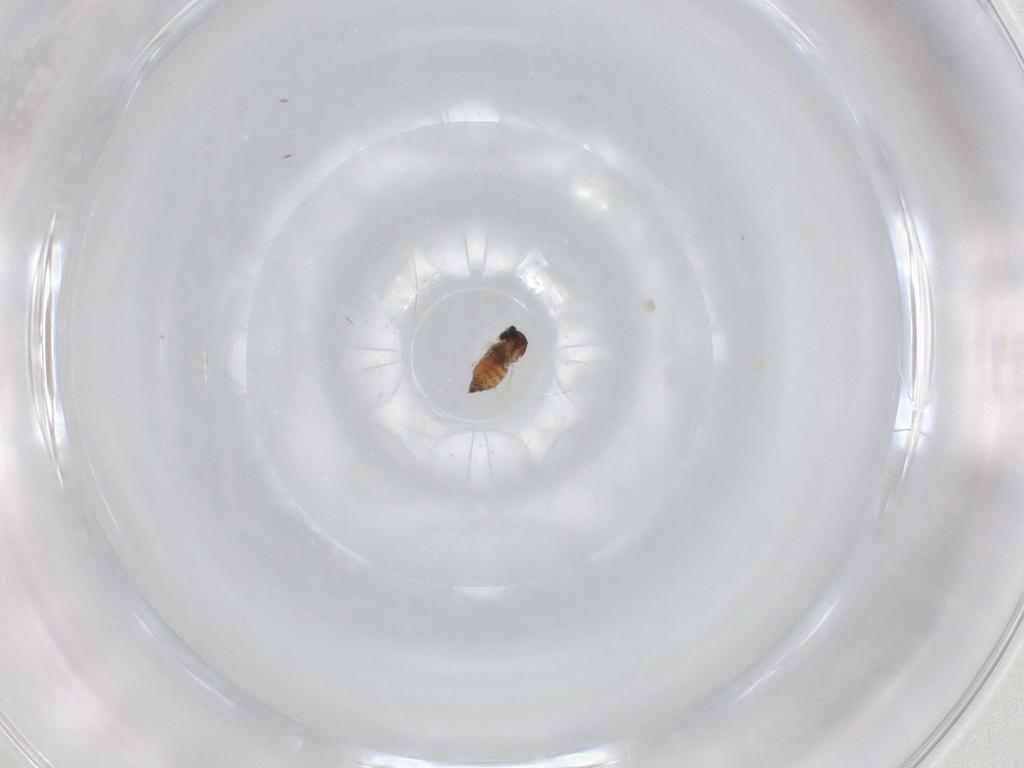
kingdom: Animalia
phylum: Arthropoda
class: Insecta
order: Diptera
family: Cecidomyiidae
